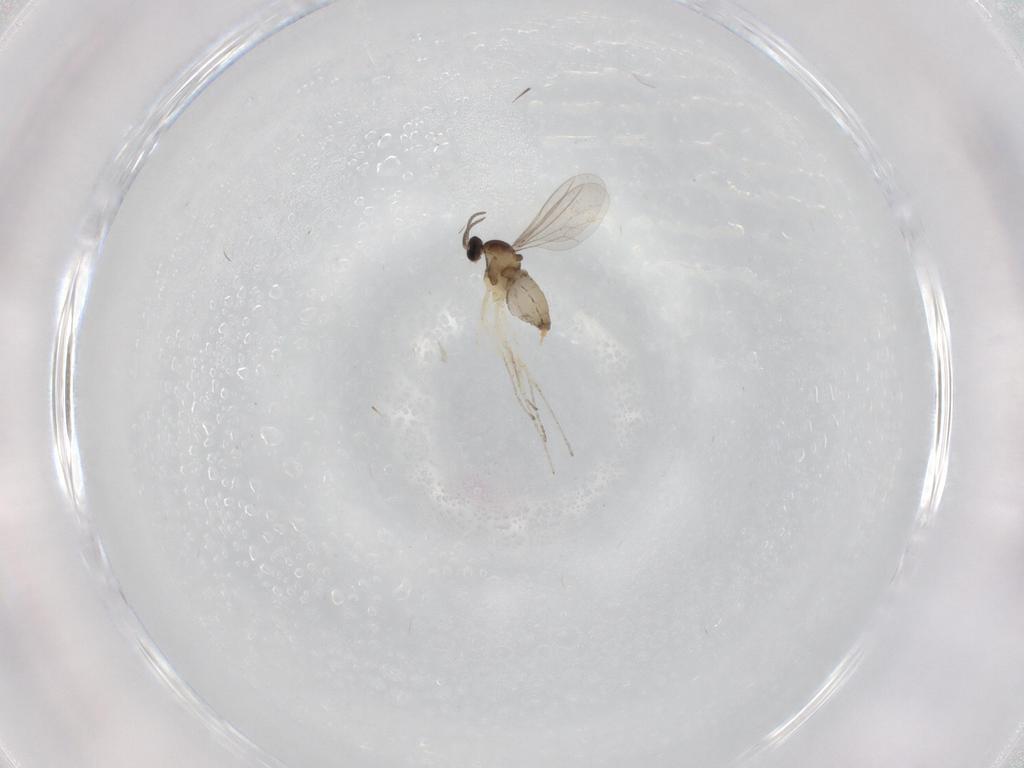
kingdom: Animalia
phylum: Arthropoda
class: Insecta
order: Diptera
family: Cecidomyiidae
